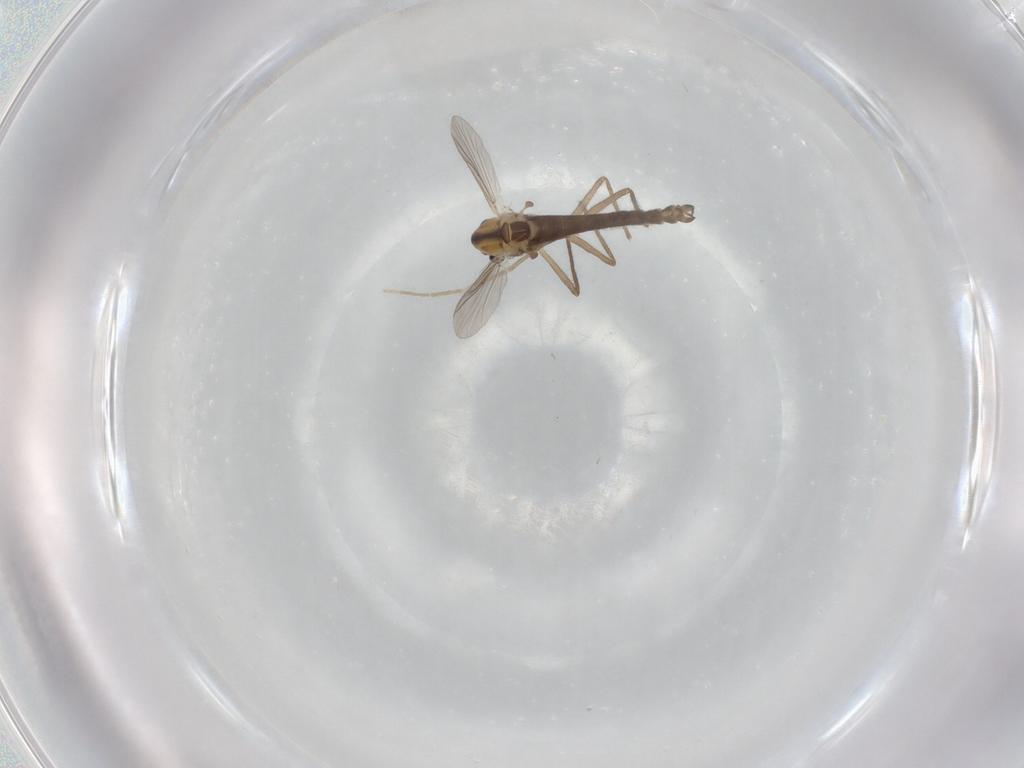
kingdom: Animalia
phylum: Arthropoda
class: Insecta
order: Diptera
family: Chironomidae
